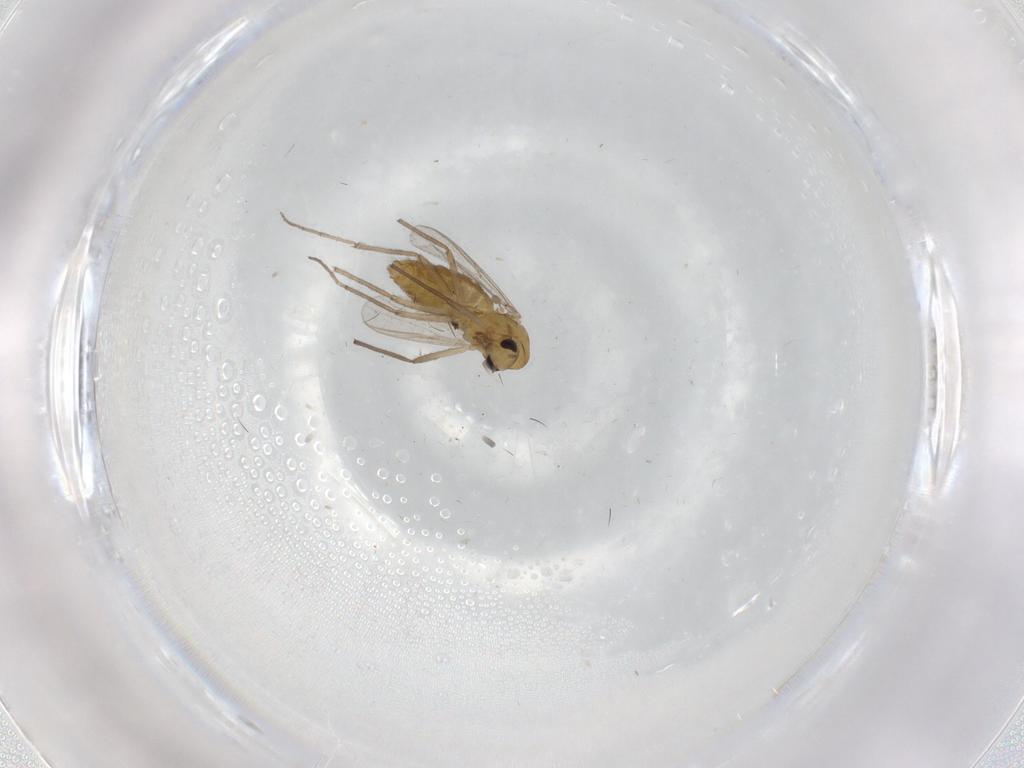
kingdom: Animalia
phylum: Arthropoda
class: Insecta
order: Diptera
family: Chironomidae
